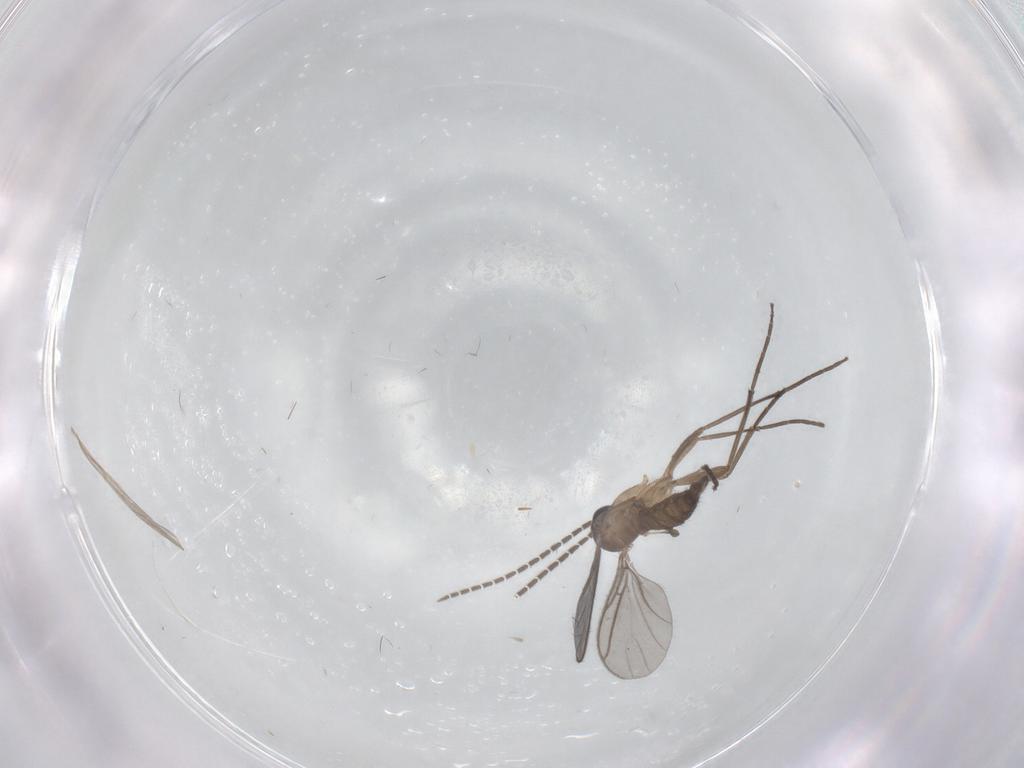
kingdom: Animalia
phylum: Arthropoda
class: Insecta
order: Diptera
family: Sciaridae
